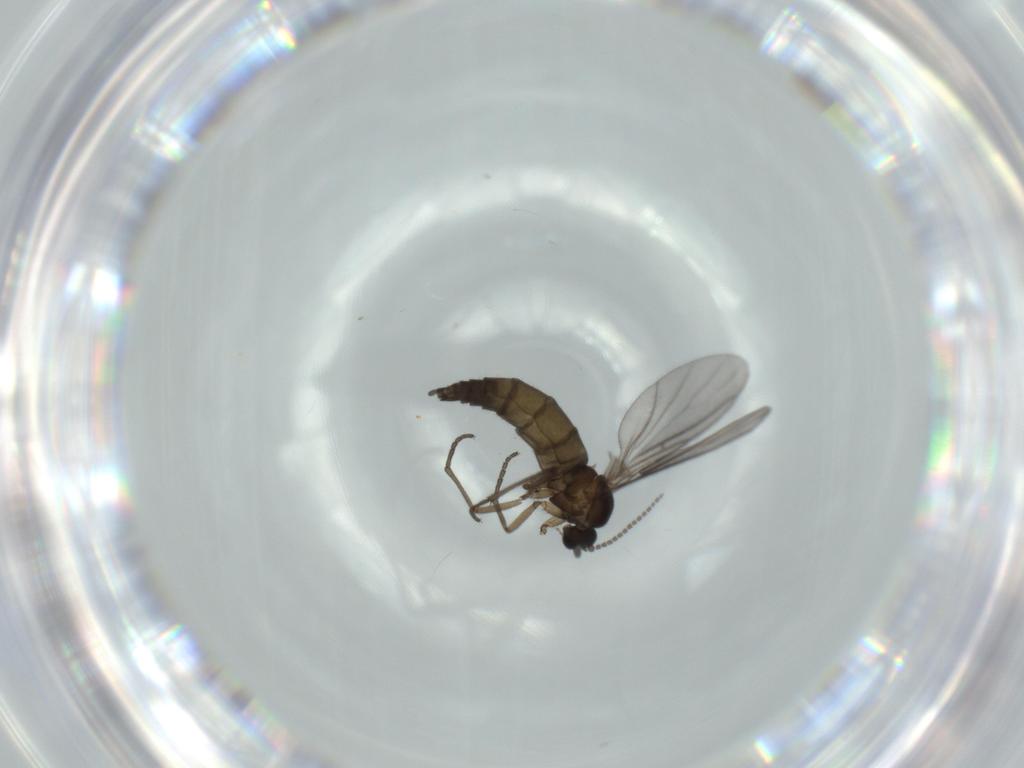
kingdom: Animalia
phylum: Arthropoda
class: Insecta
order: Diptera
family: Sciaridae
